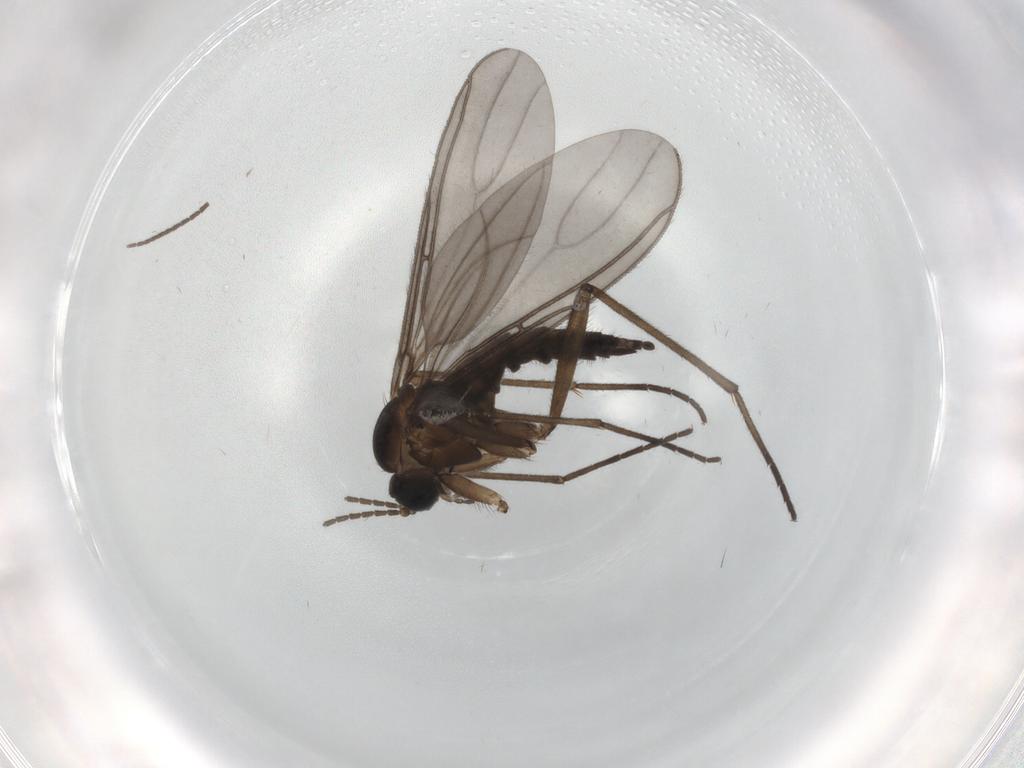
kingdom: Animalia
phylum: Arthropoda
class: Insecta
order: Diptera
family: Sciaridae
